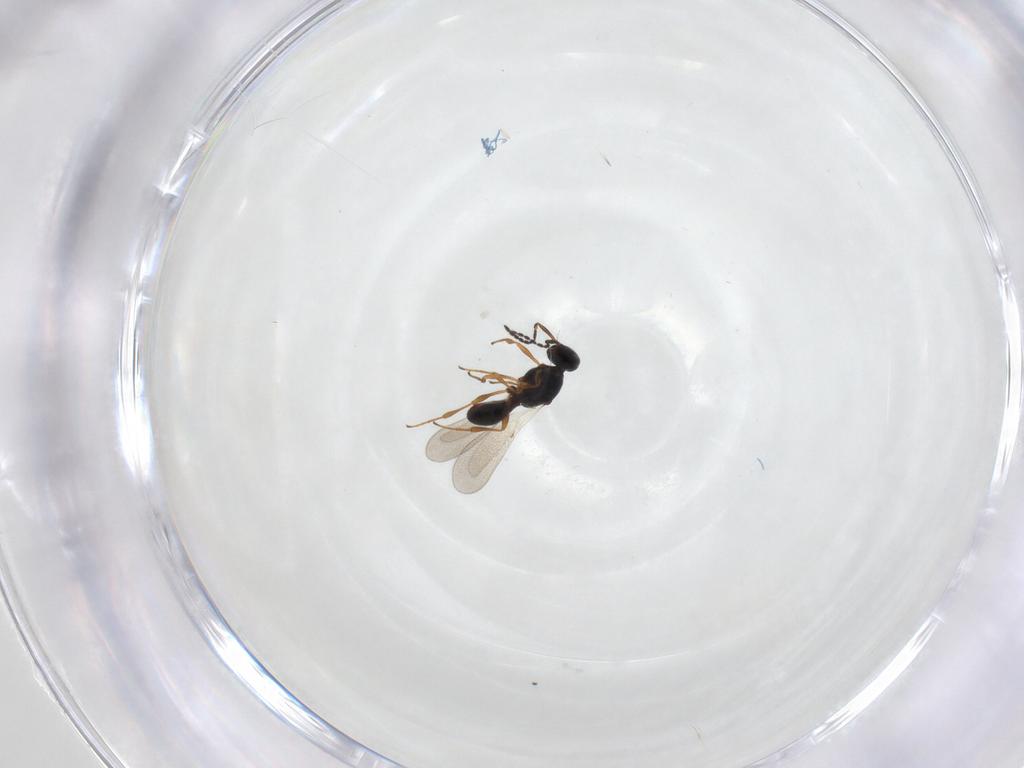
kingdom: Animalia
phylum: Arthropoda
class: Insecta
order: Hymenoptera
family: Platygastridae
